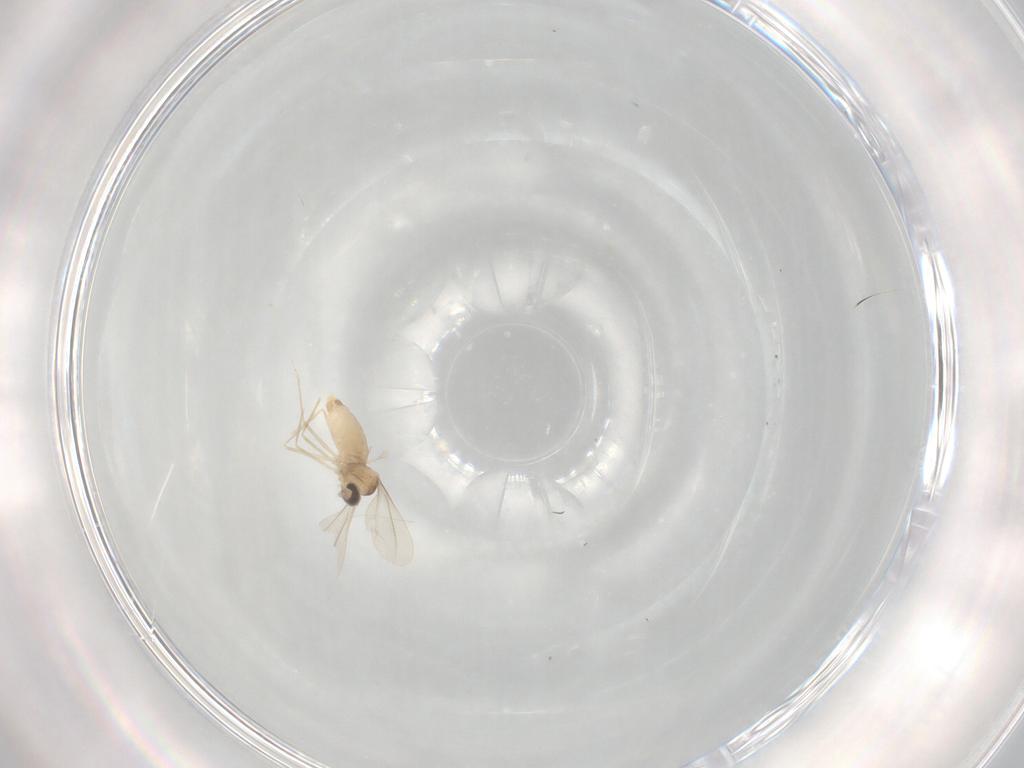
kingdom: Animalia
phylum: Arthropoda
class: Insecta
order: Diptera
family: Cecidomyiidae
